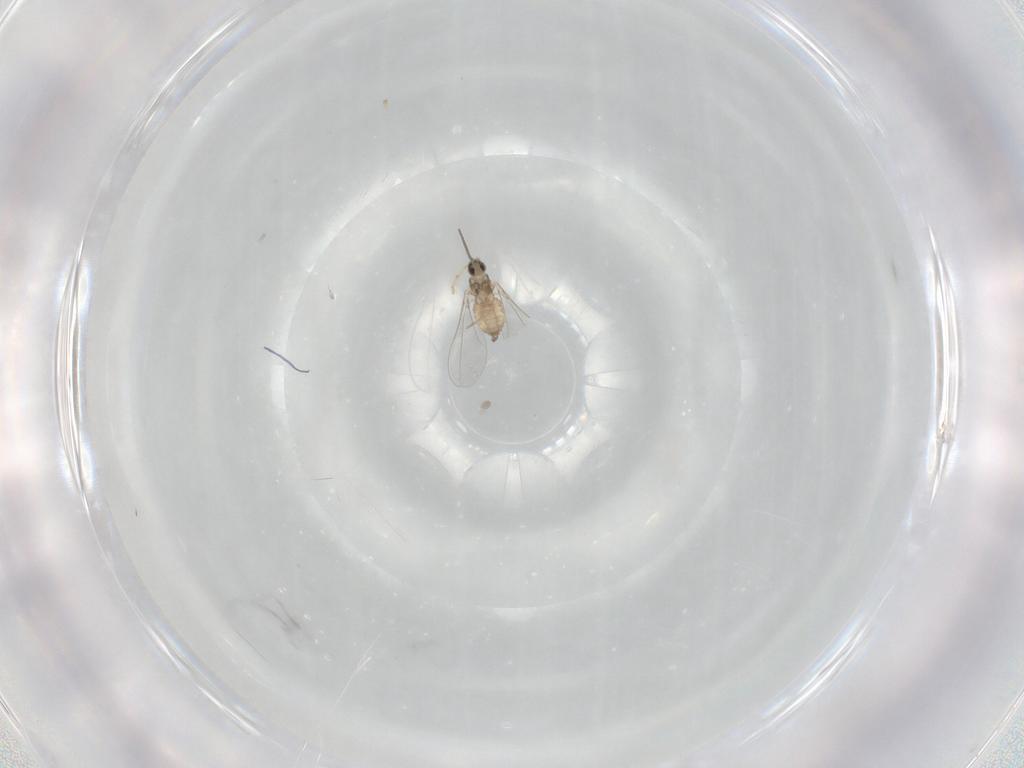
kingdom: Animalia
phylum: Arthropoda
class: Insecta
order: Diptera
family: Cecidomyiidae
